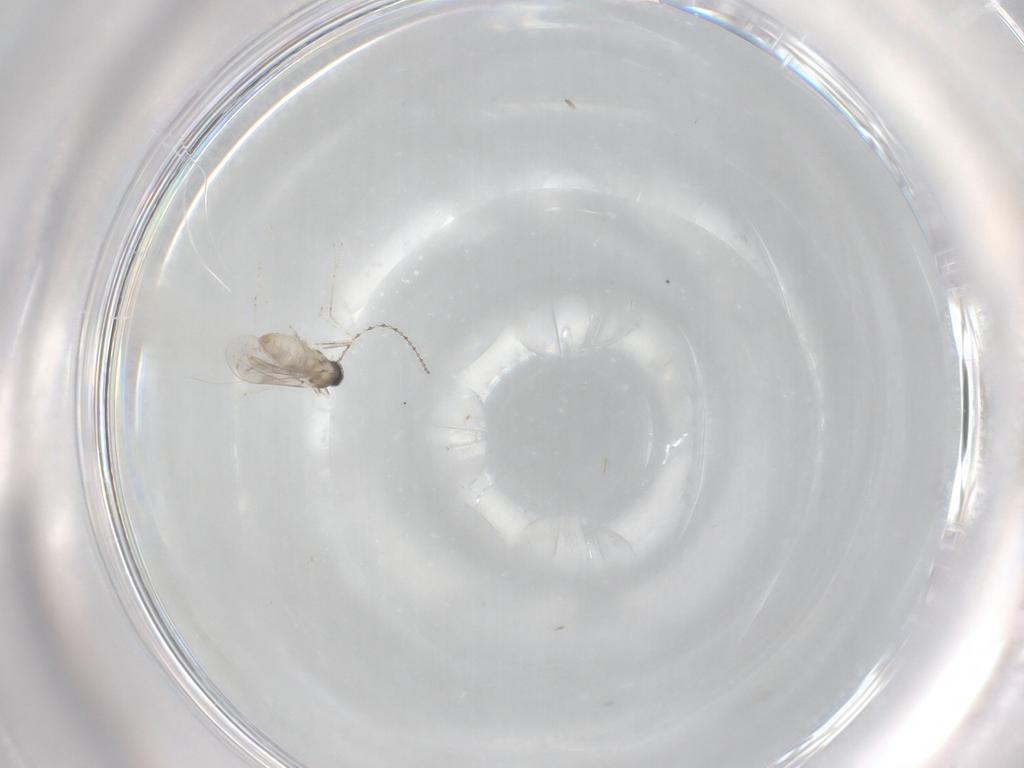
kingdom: Animalia
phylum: Arthropoda
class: Insecta
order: Diptera
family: Cecidomyiidae
